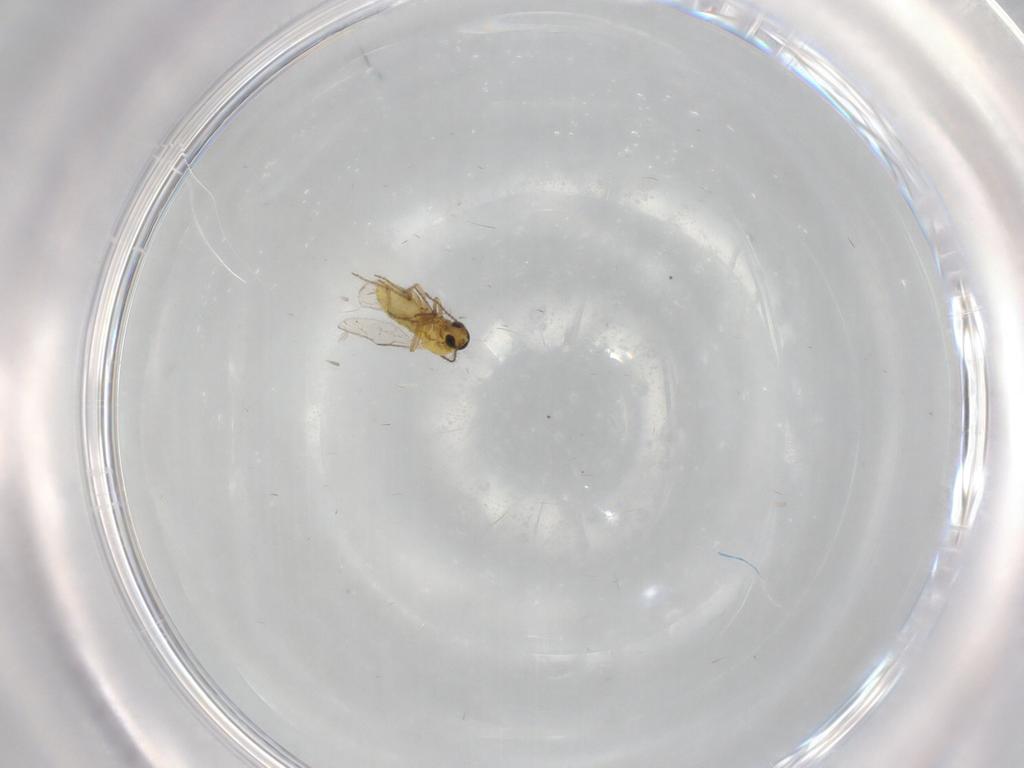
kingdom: Animalia
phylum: Arthropoda
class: Insecta
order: Diptera
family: Ceratopogonidae
